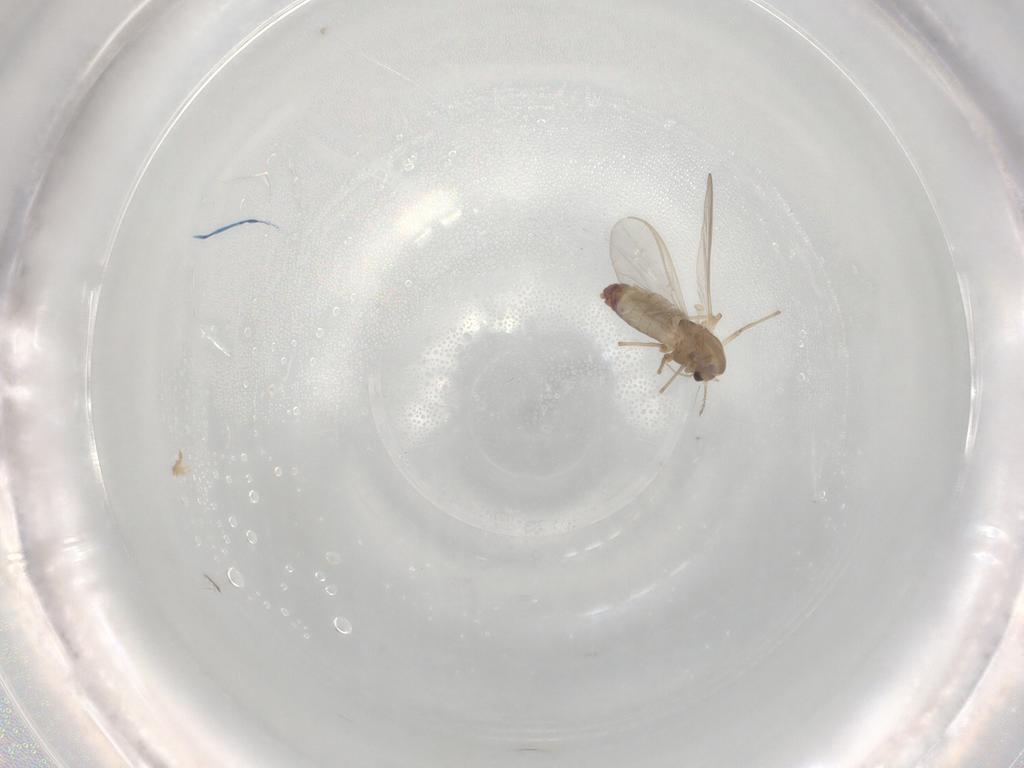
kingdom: Animalia
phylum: Arthropoda
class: Insecta
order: Diptera
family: Chironomidae
